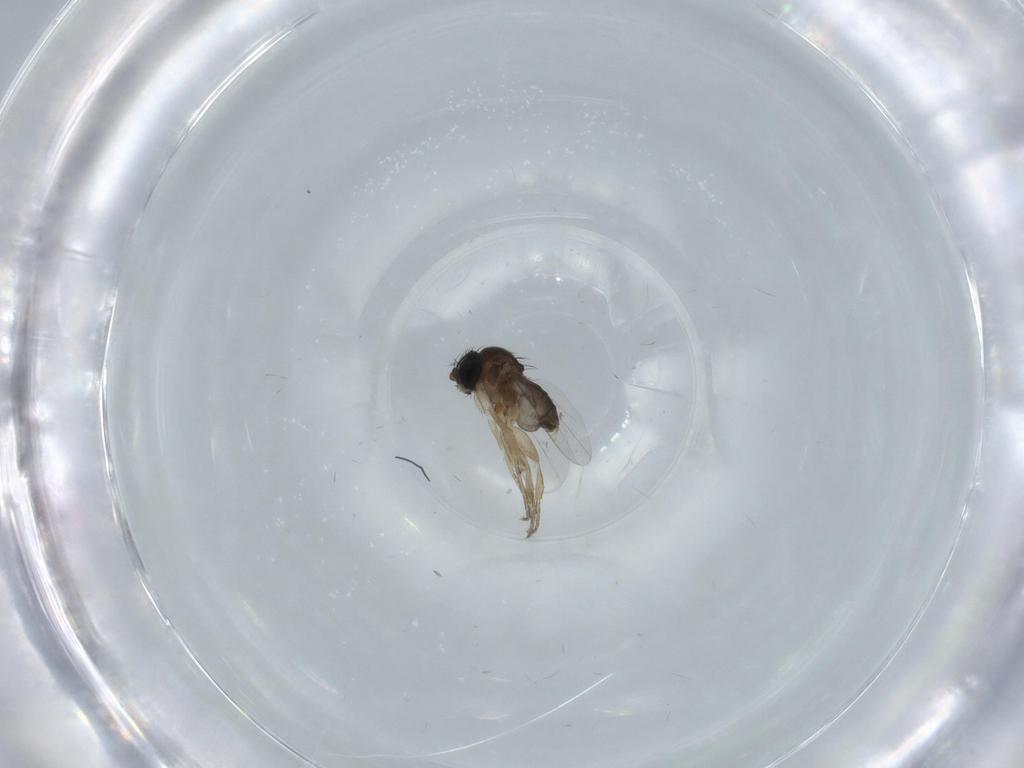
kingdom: Animalia
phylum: Arthropoda
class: Insecta
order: Diptera
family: Cecidomyiidae
